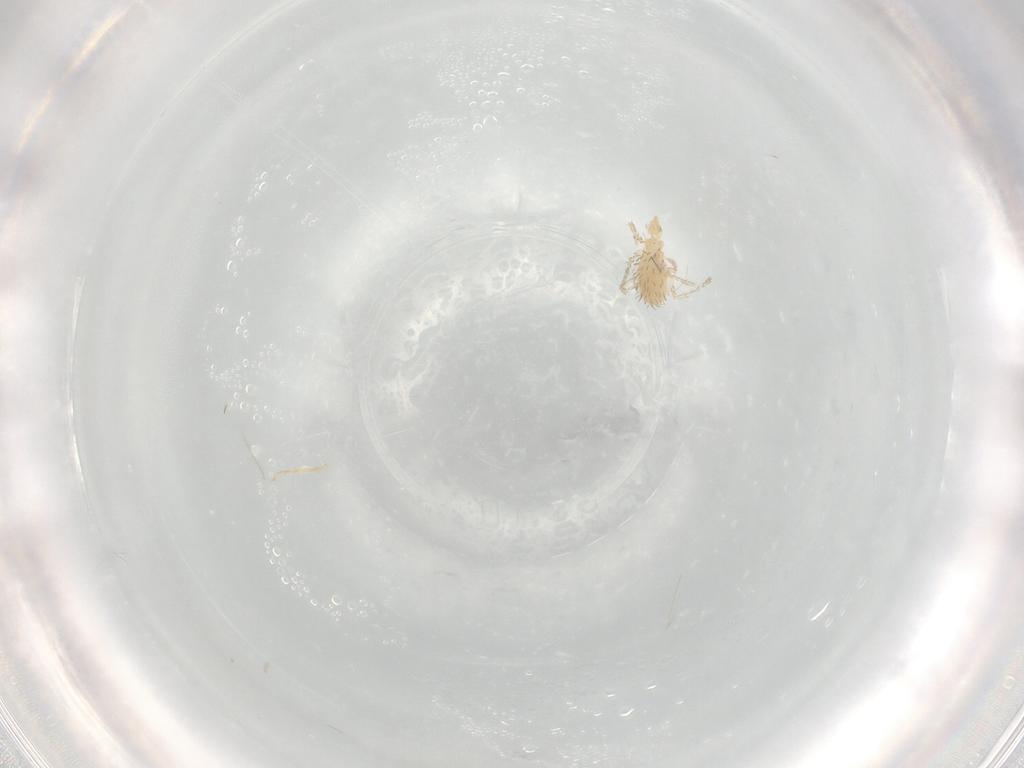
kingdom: Animalia
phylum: Arthropoda
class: Arachnida
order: Trombidiformes
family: Erythraeidae
